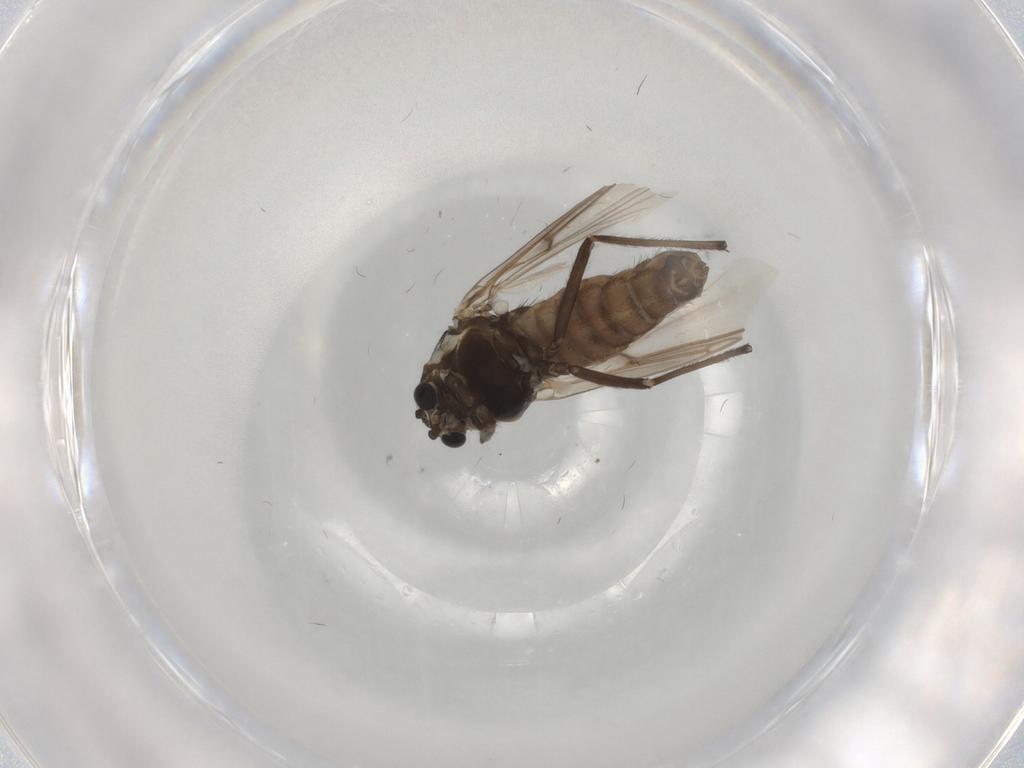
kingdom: Animalia
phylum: Arthropoda
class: Insecta
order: Diptera
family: Chironomidae
